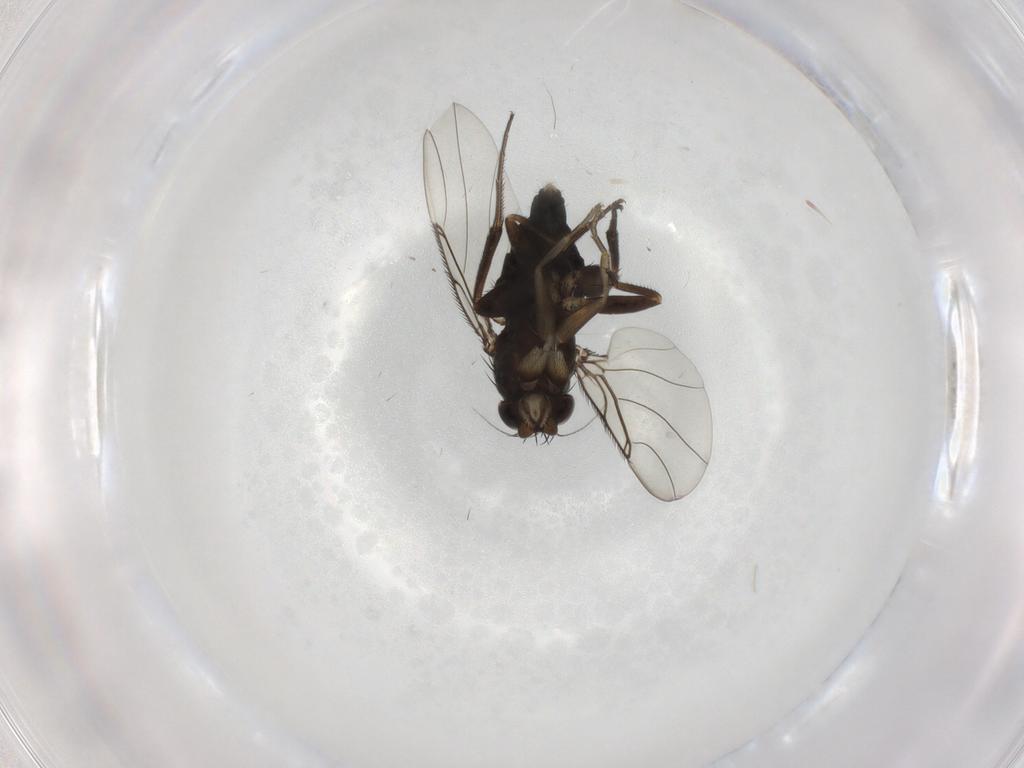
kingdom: Animalia
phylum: Arthropoda
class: Insecta
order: Diptera
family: Phoridae
